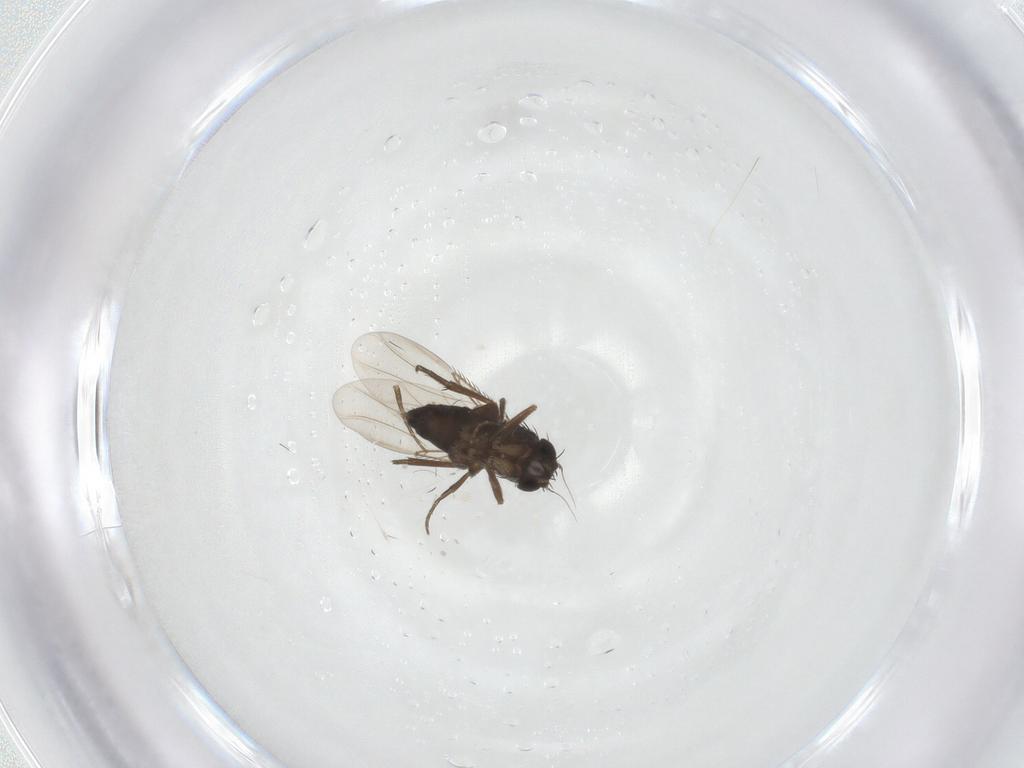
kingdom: Animalia
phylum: Arthropoda
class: Insecta
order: Diptera
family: Phoridae
